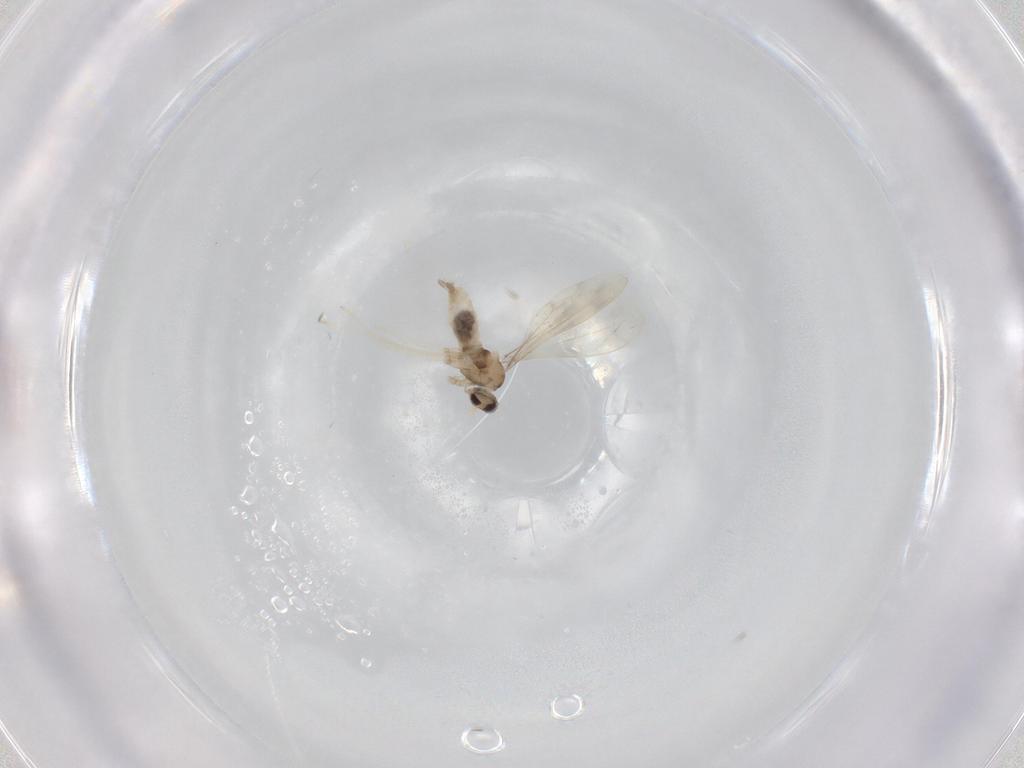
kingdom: Animalia
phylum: Arthropoda
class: Insecta
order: Diptera
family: Cecidomyiidae
